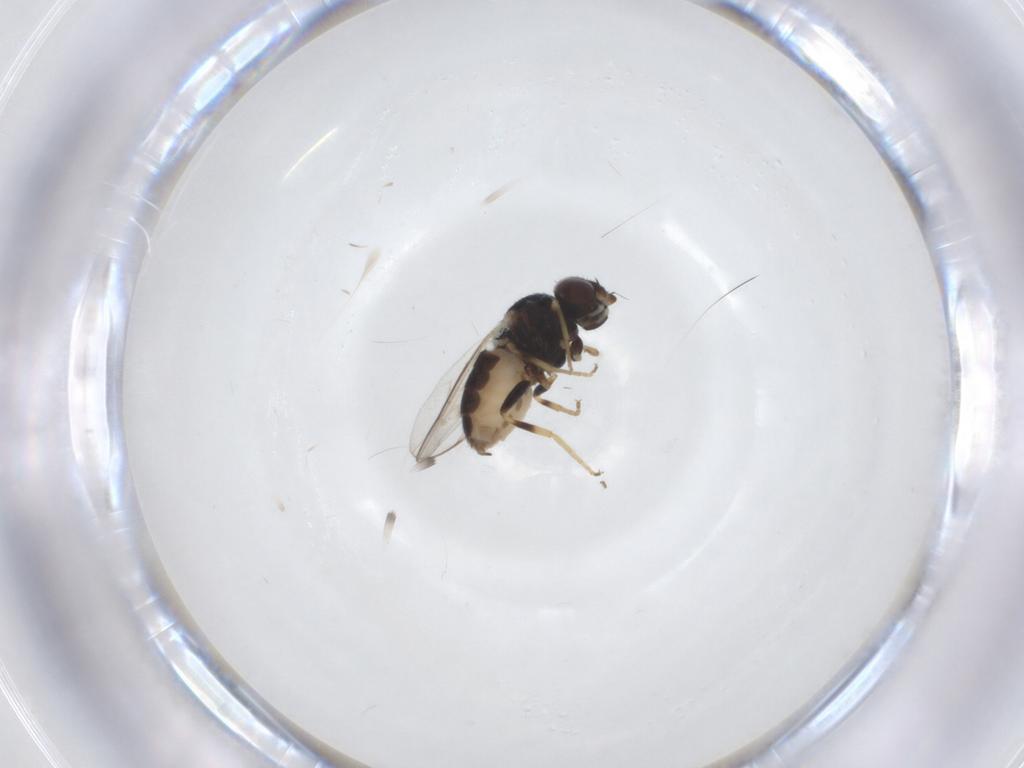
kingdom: Animalia
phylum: Arthropoda
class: Insecta
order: Diptera
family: Chloropidae
